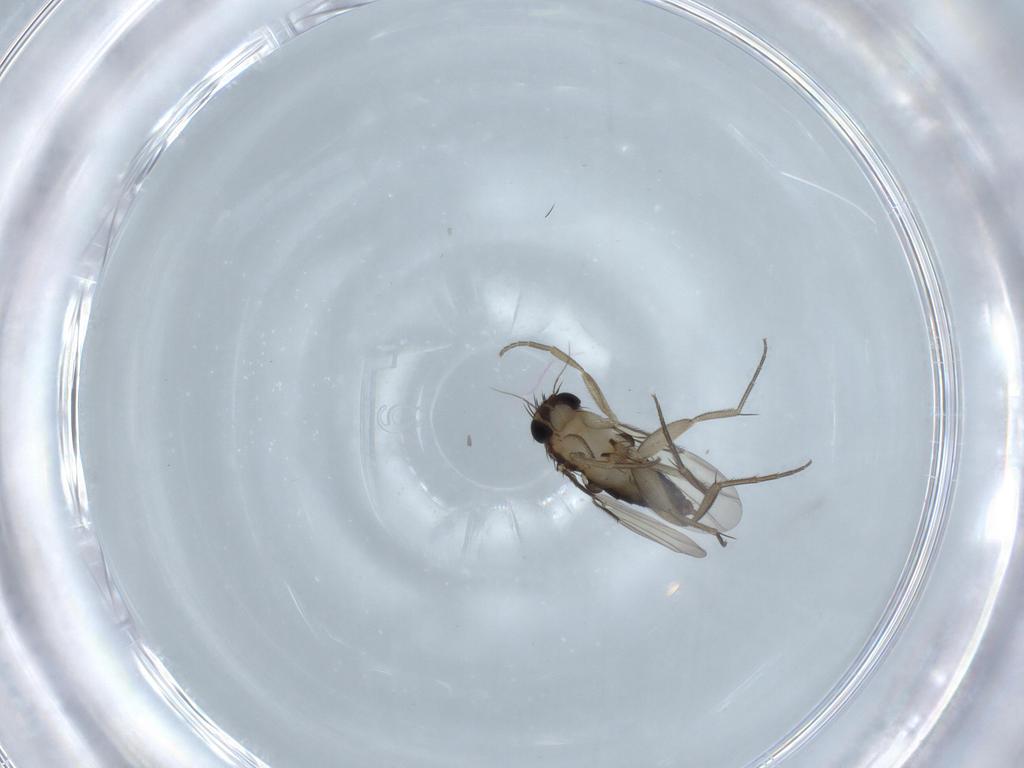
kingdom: Animalia
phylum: Arthropoda
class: Insecta
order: Diptera
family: Phoridae
